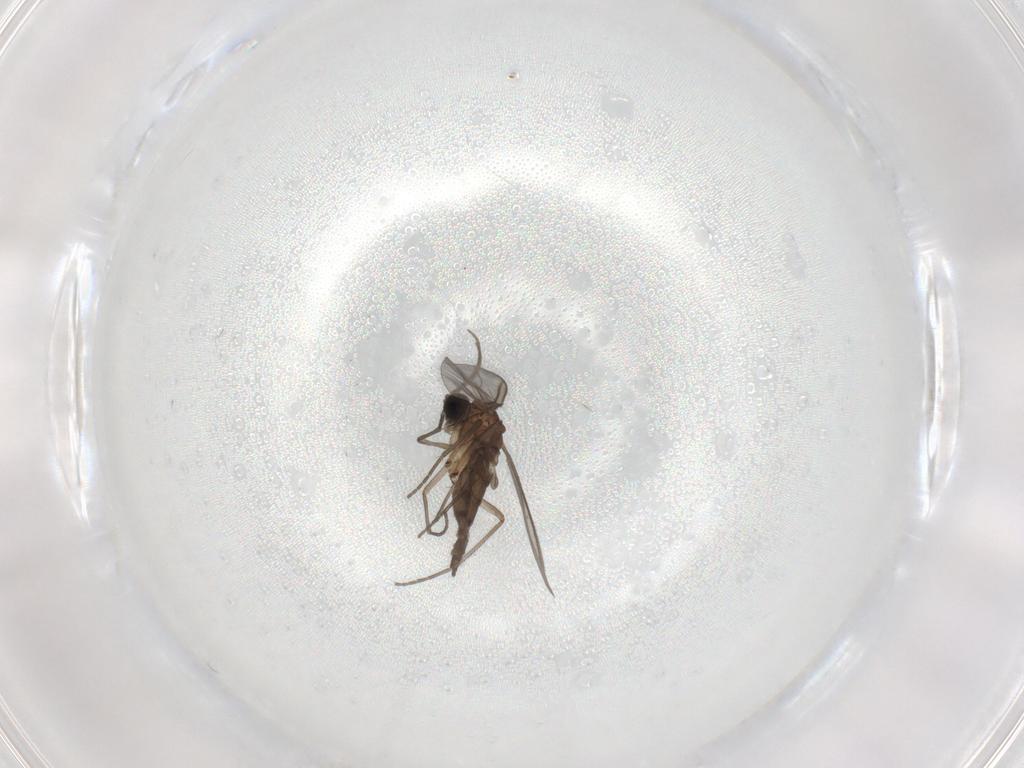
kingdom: Animalia
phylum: Arthropoda
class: Insecta
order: Diptera
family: Sciaridae
